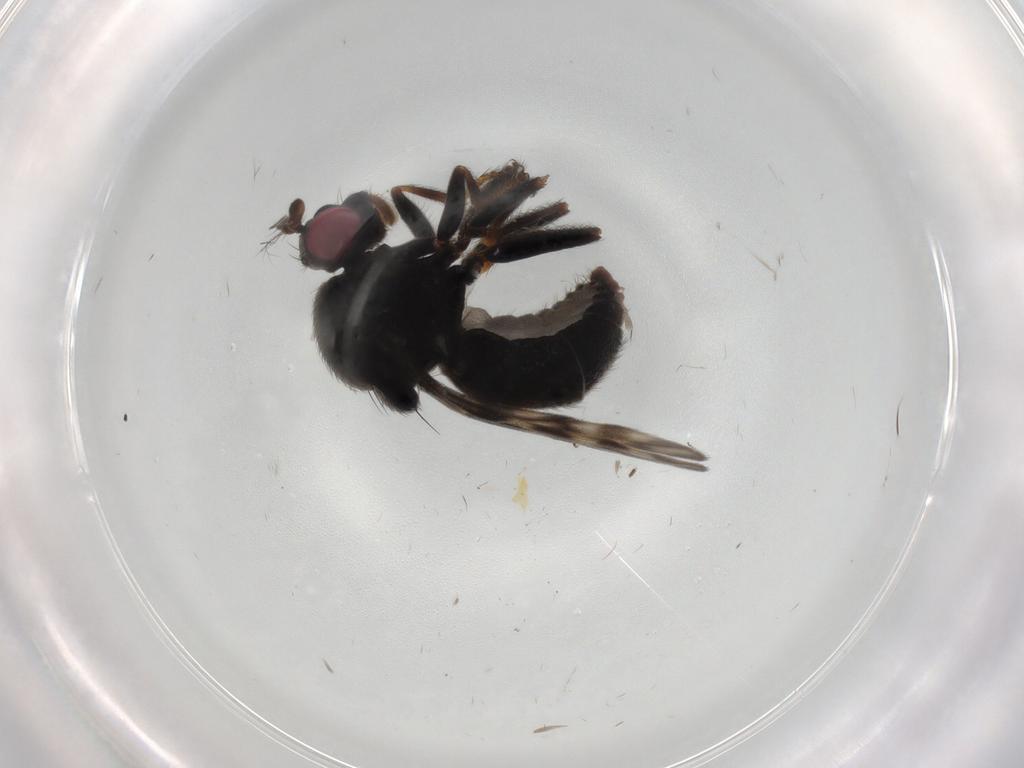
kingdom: Animalia
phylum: Arthropoda
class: Insecta
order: Diptera
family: Ephydridae
